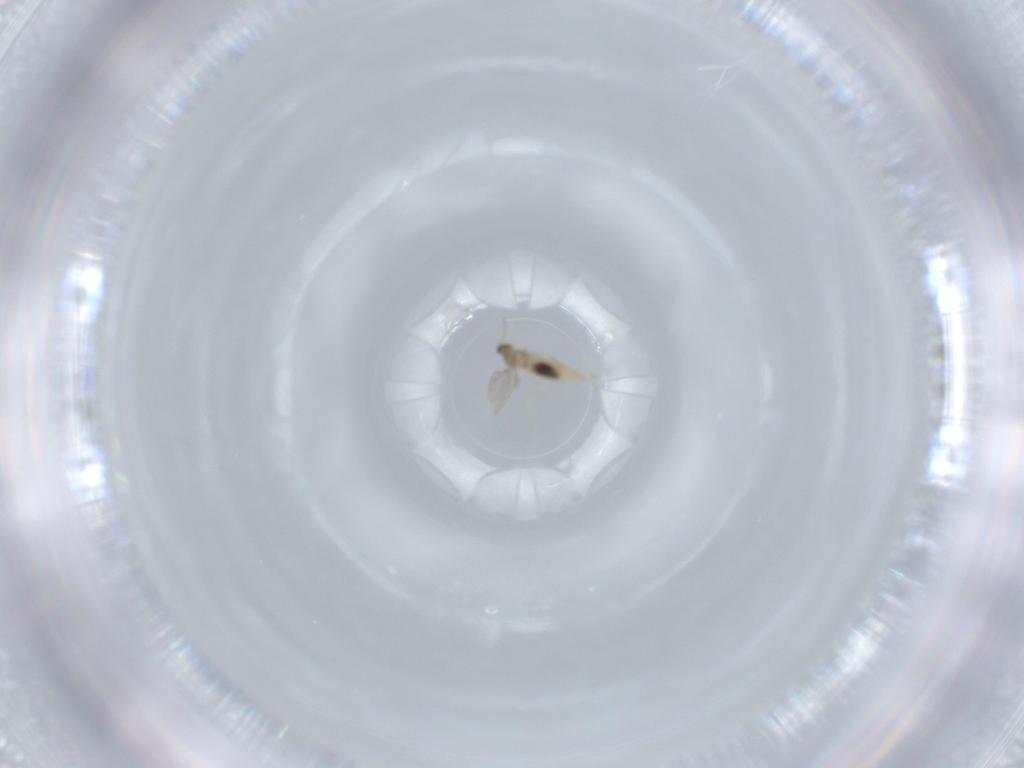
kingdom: Animalia
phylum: Arthropoda
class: Insecta
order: Diptera
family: Cecidomyiidae
